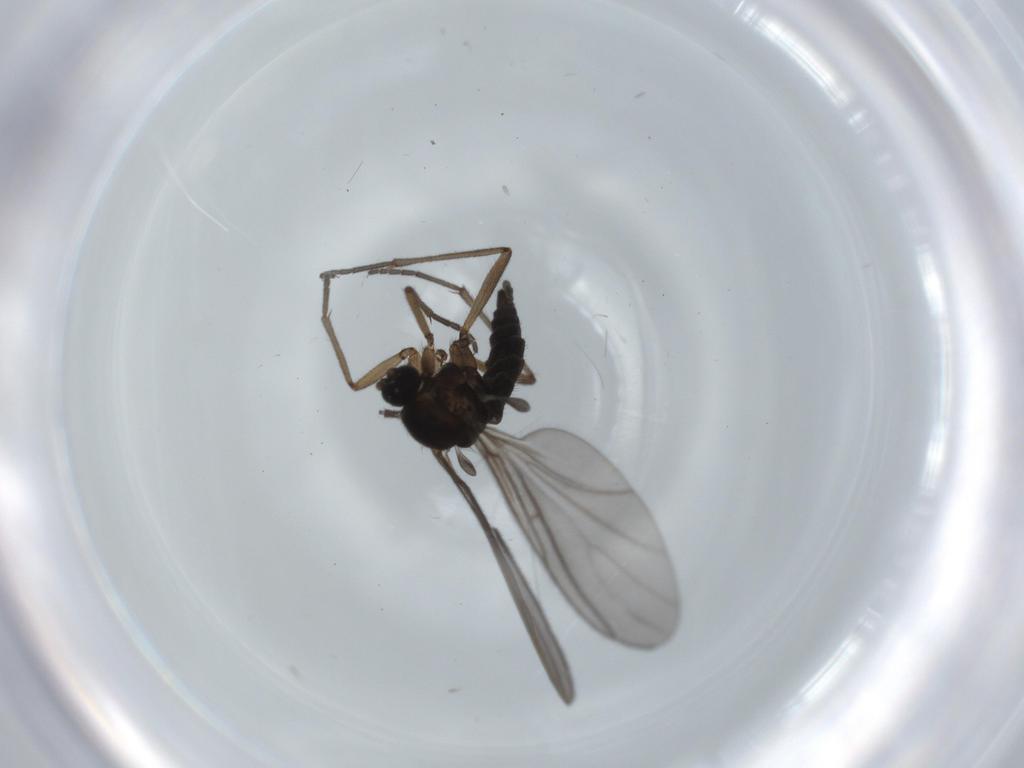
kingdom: Animalia
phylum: Arthropoda
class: Insecta
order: Diptera
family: Sciaridae
